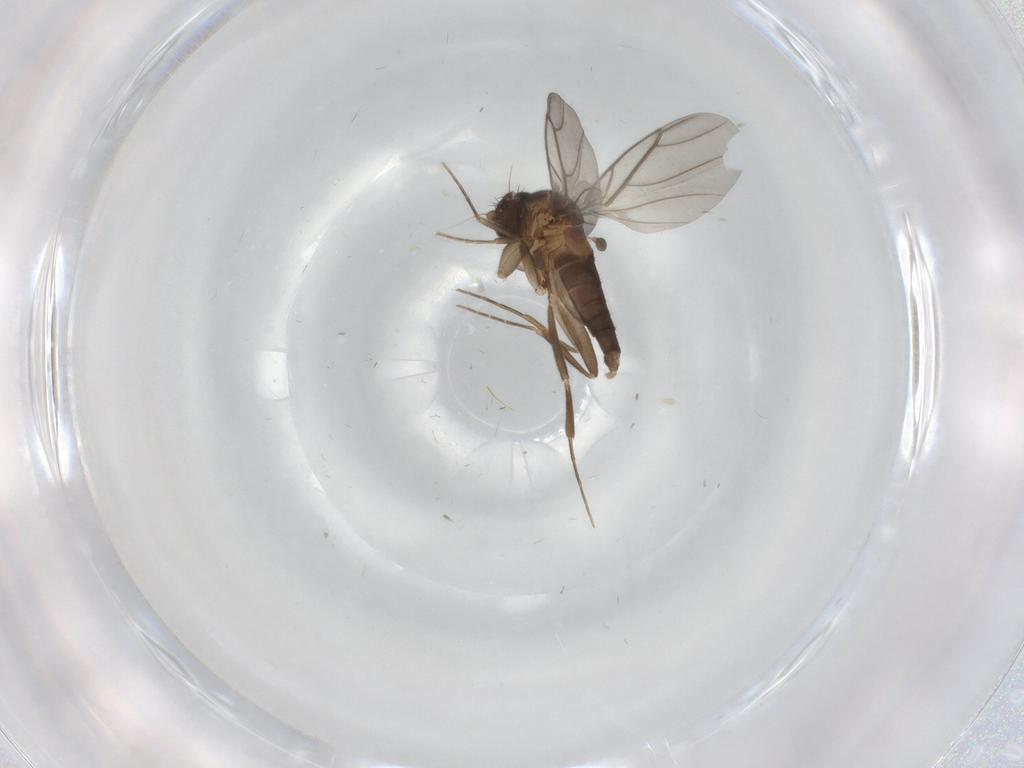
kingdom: Animalia
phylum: Arthropoda
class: Insecta
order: Diptera
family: Phoridae
